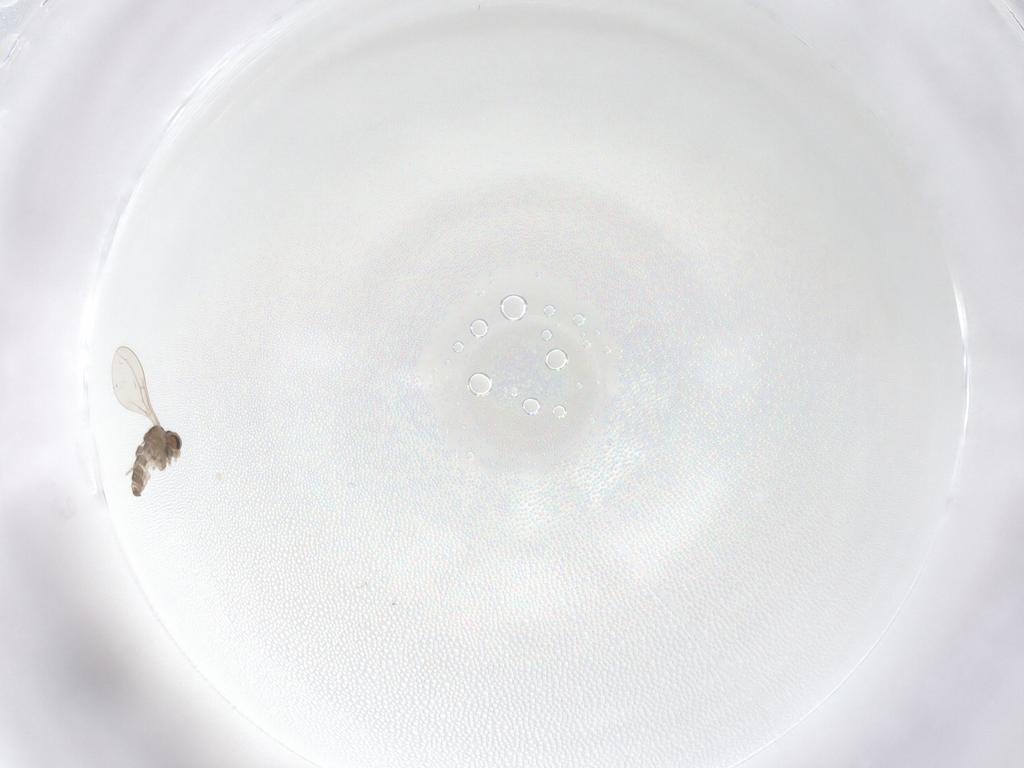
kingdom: Animalia
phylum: Arthropoda
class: Insecta
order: Diptera
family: Cecidomyiidae
